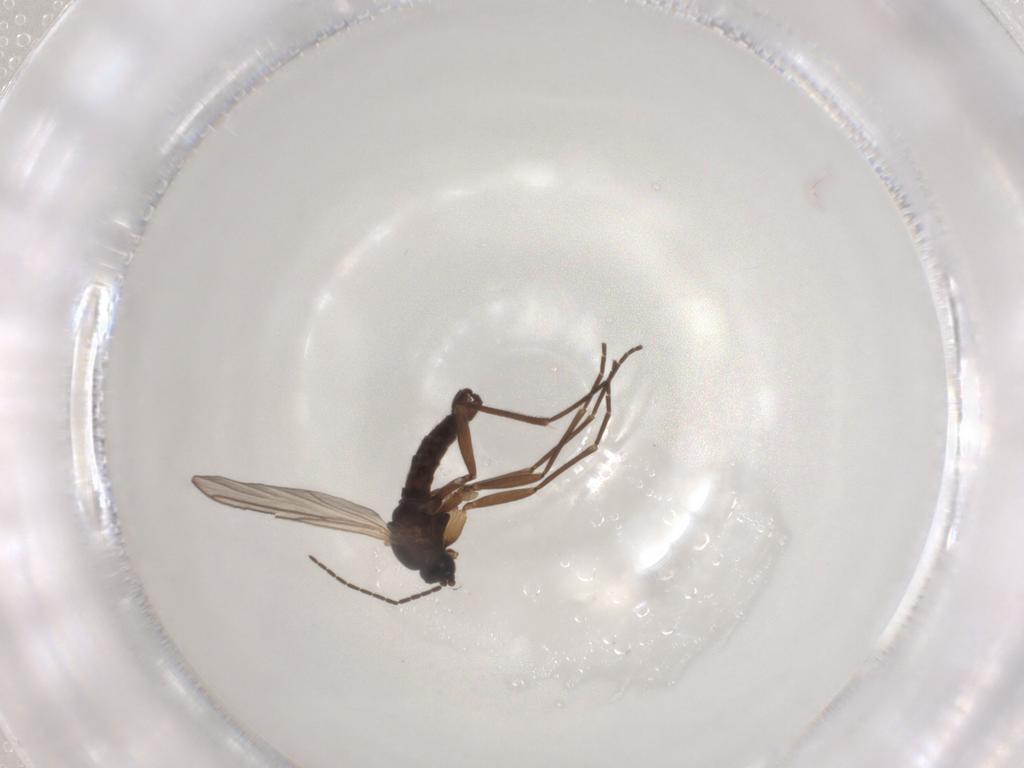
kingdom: Animalia
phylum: Arthropoda
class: Insecta
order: Diptera
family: Sciaridae
